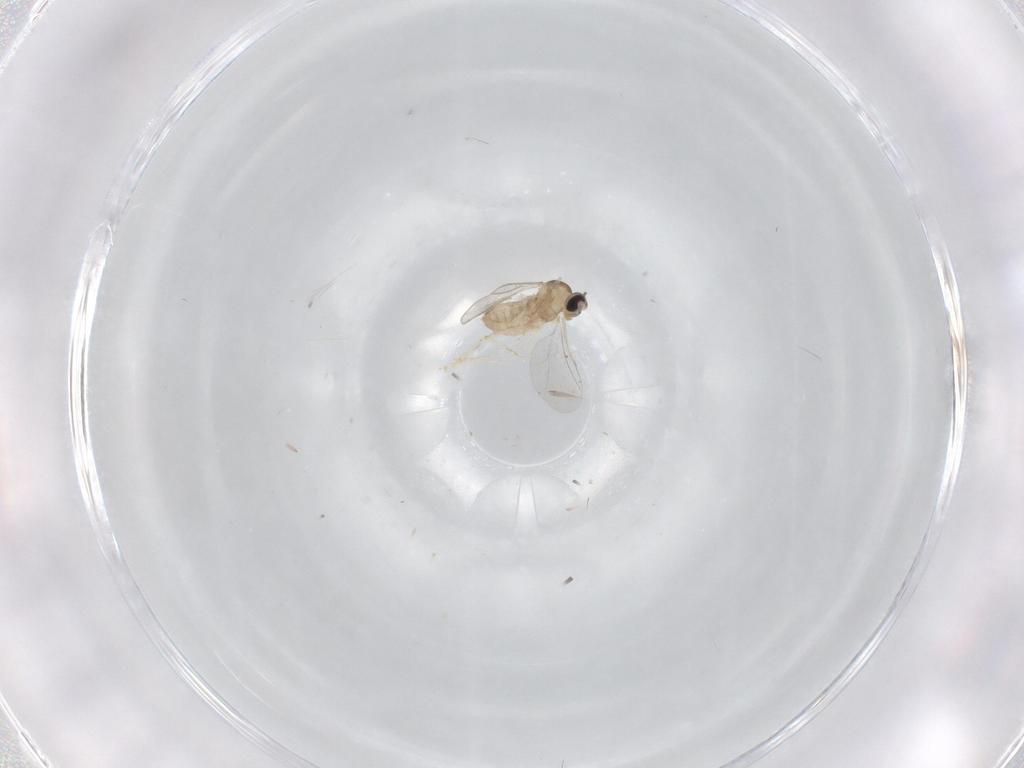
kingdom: Animalia
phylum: Arthropoda
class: Insecta
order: Diptera
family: Cecidomyiidae
